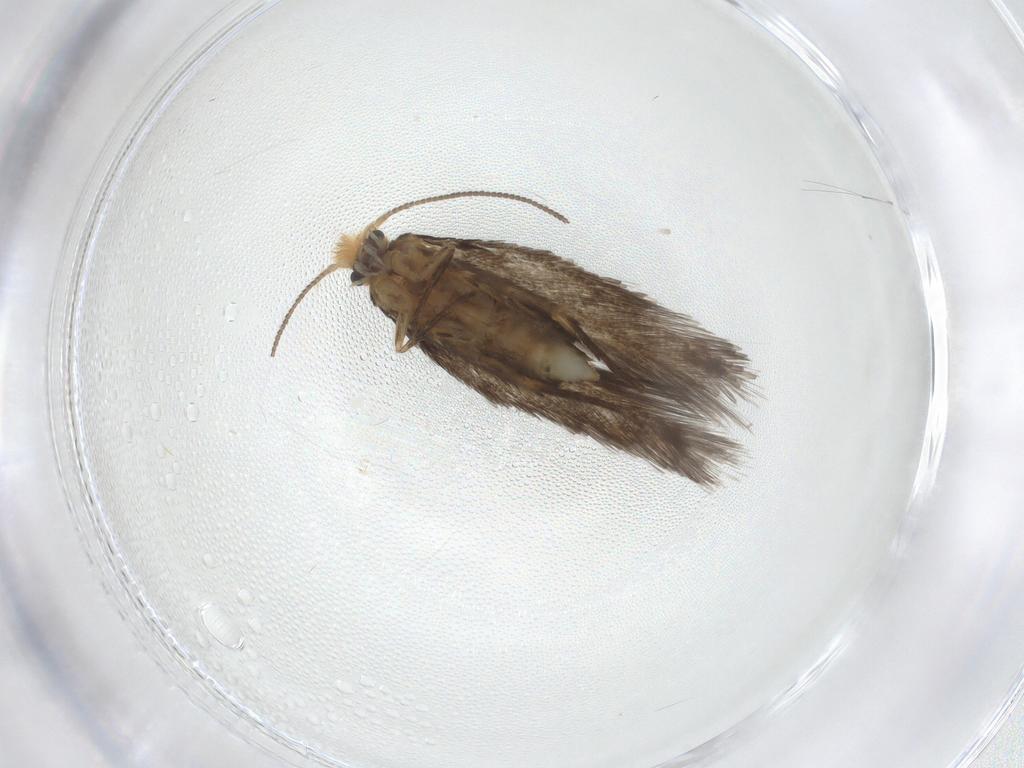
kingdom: Animalia
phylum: Arthropoda
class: Insecta
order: Lepidoptera
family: Nepticulidae
